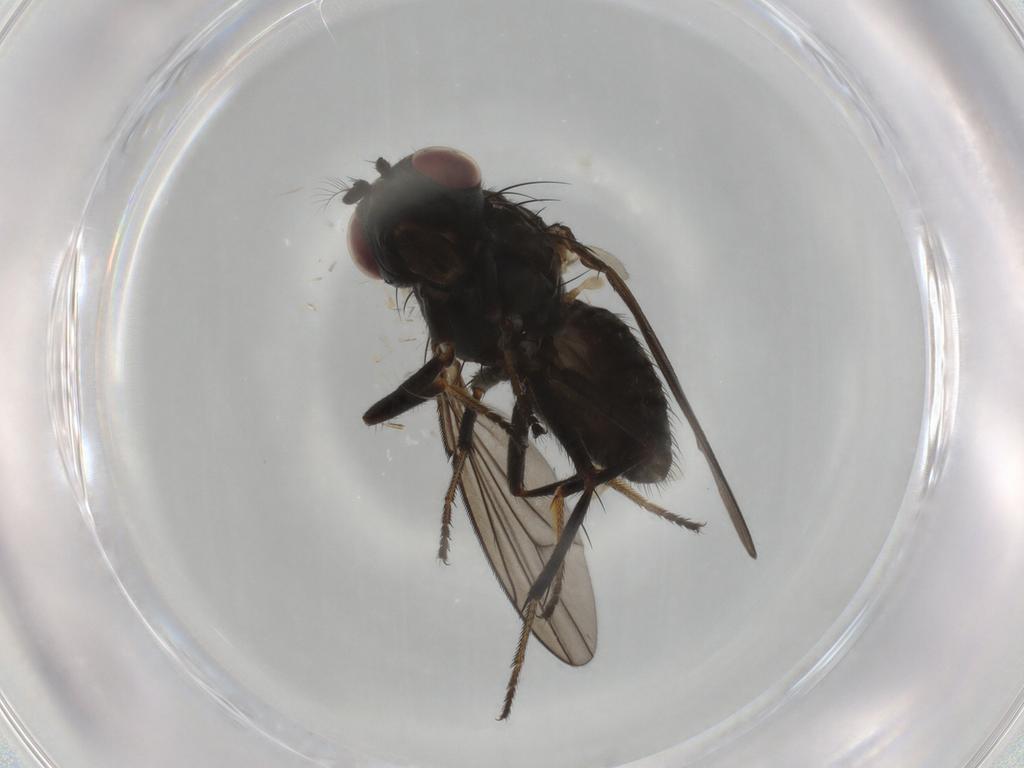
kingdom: Animalia
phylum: Arthropoda
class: Insecta
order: Diptera
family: Ephydridae
